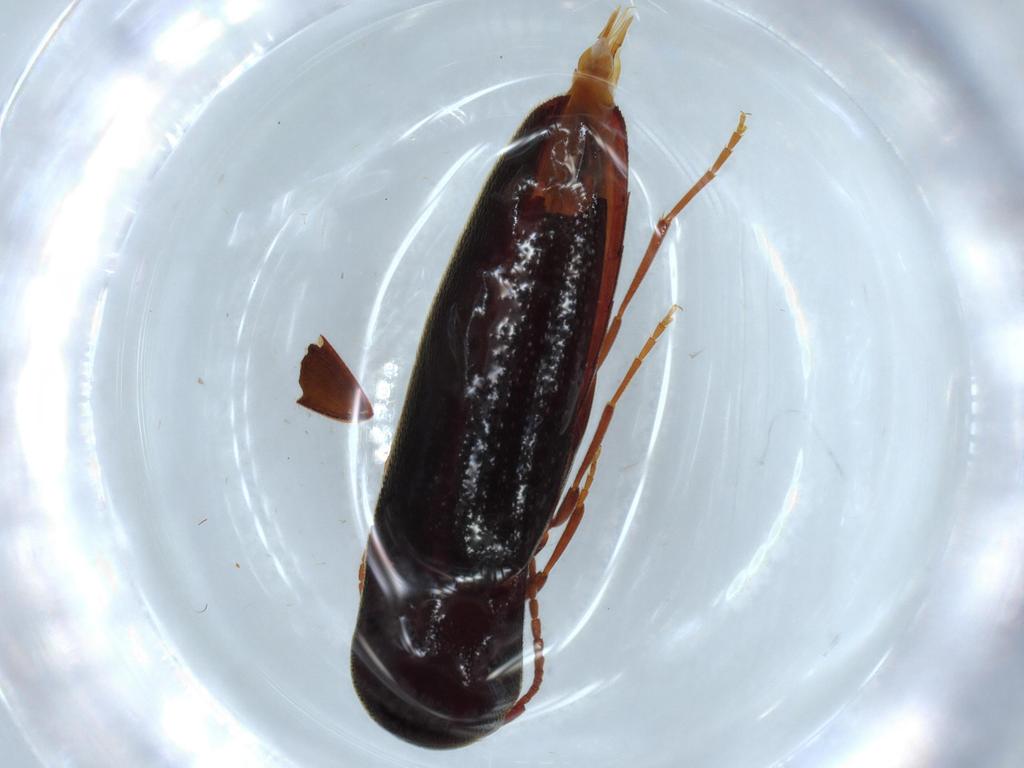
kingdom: Animalia
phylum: Arthropoda
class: Insecta
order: Coleoptera
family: Eucnemidae
